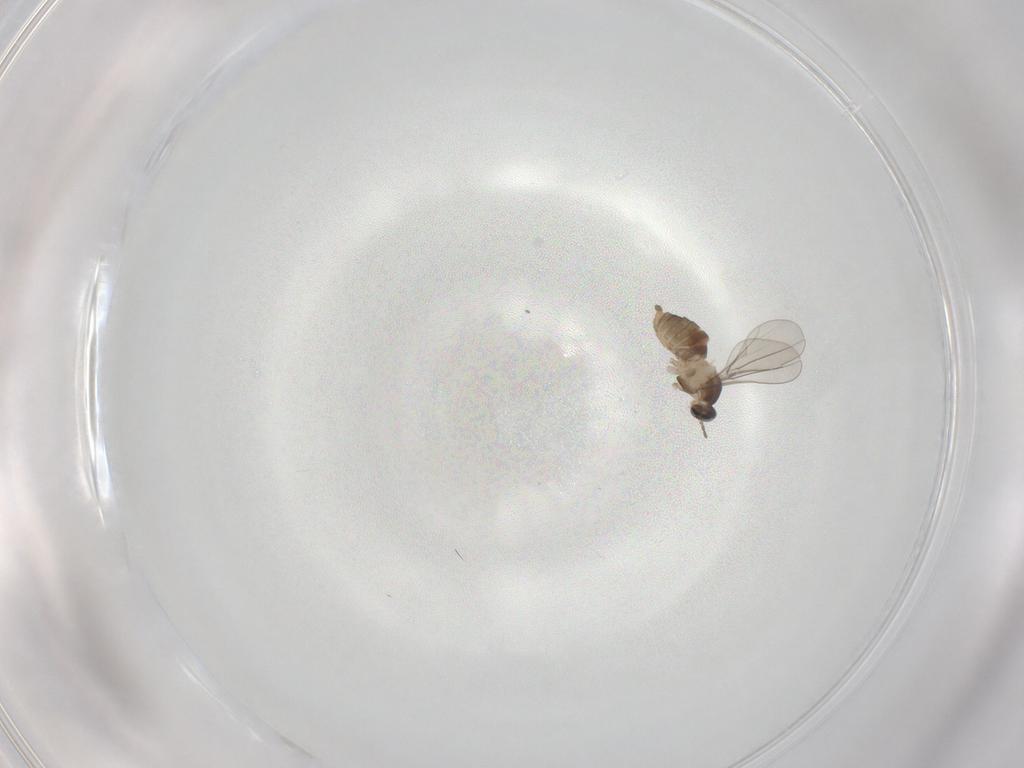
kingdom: Animalia
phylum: Arthropoda
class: Insecta
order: Diptera
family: Cecidomyiidae
